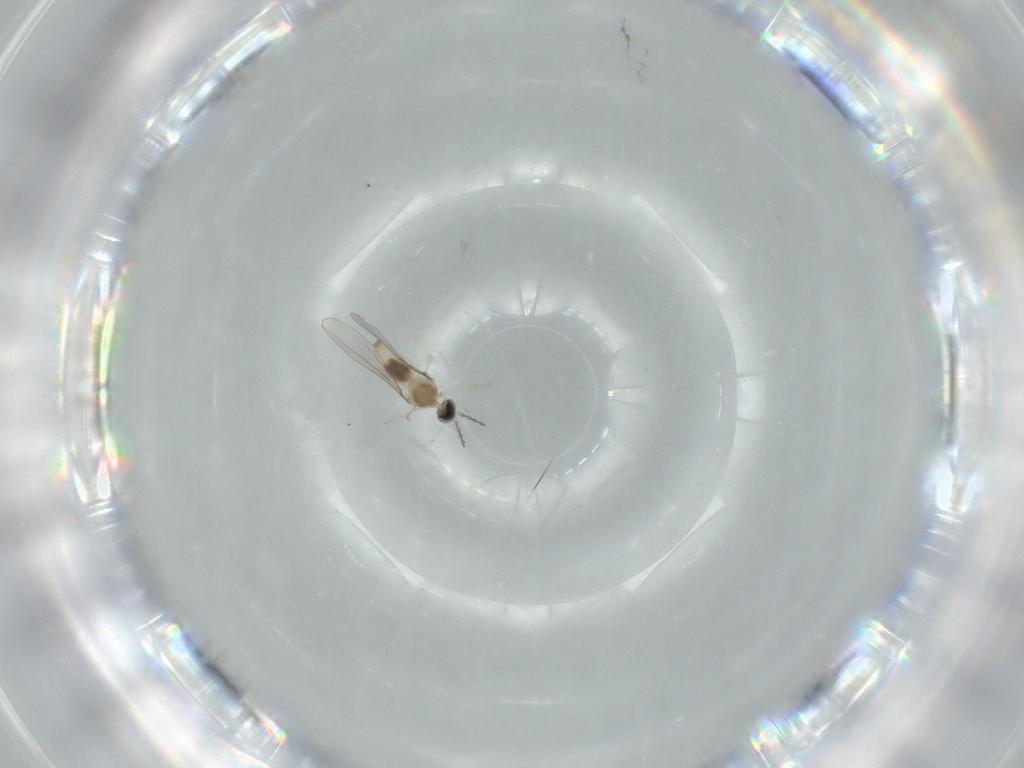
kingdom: Animalia
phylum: Arthropoda
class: Insecta
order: Diptera
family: Cecidomyiidae
